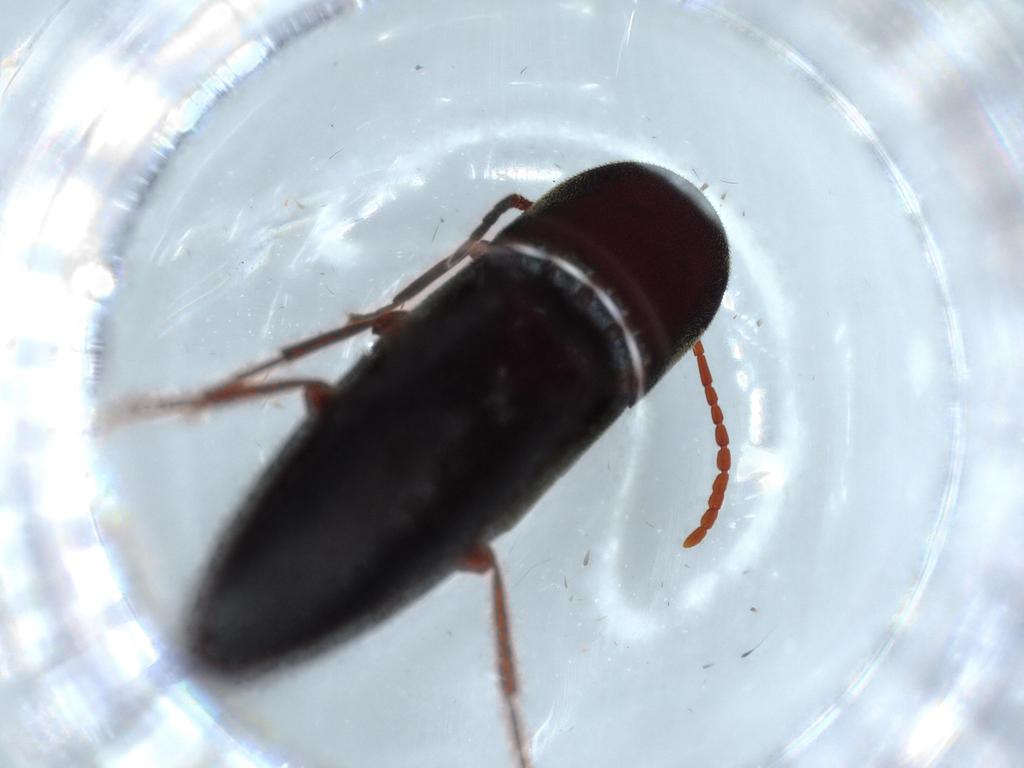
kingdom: Animalia
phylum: Arthropoda
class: Insecta
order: Coleoptera
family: Eucnemidae
